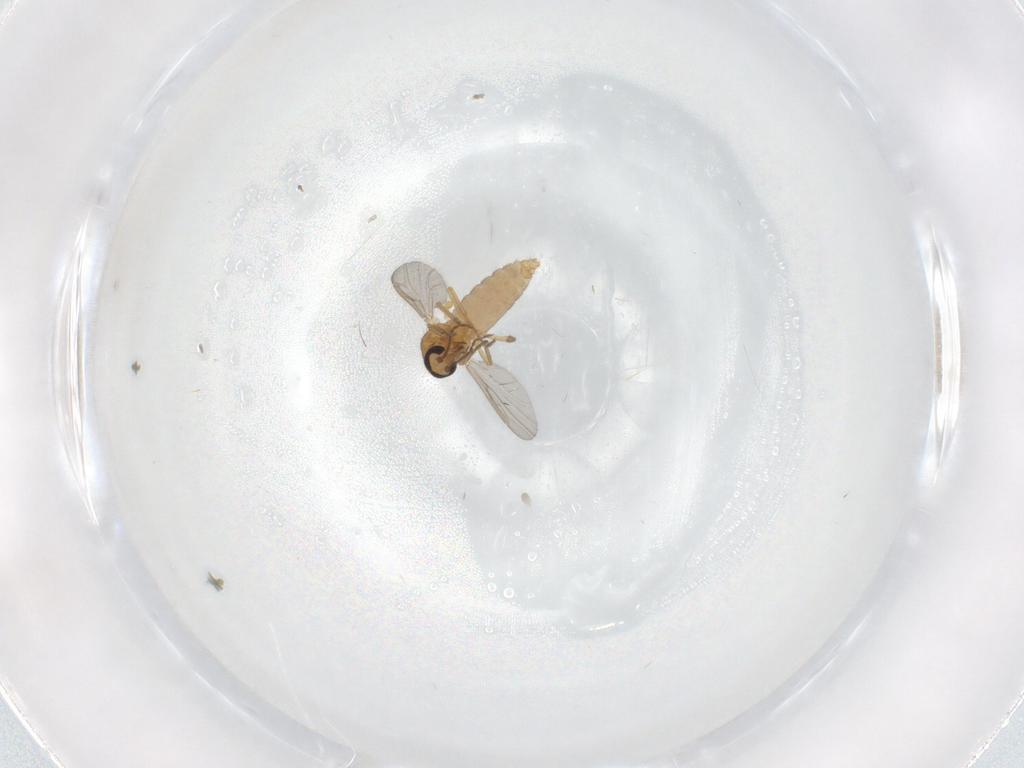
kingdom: Animalia
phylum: Arthropoda
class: Insecta
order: Diptera
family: Ceratopogonidae
